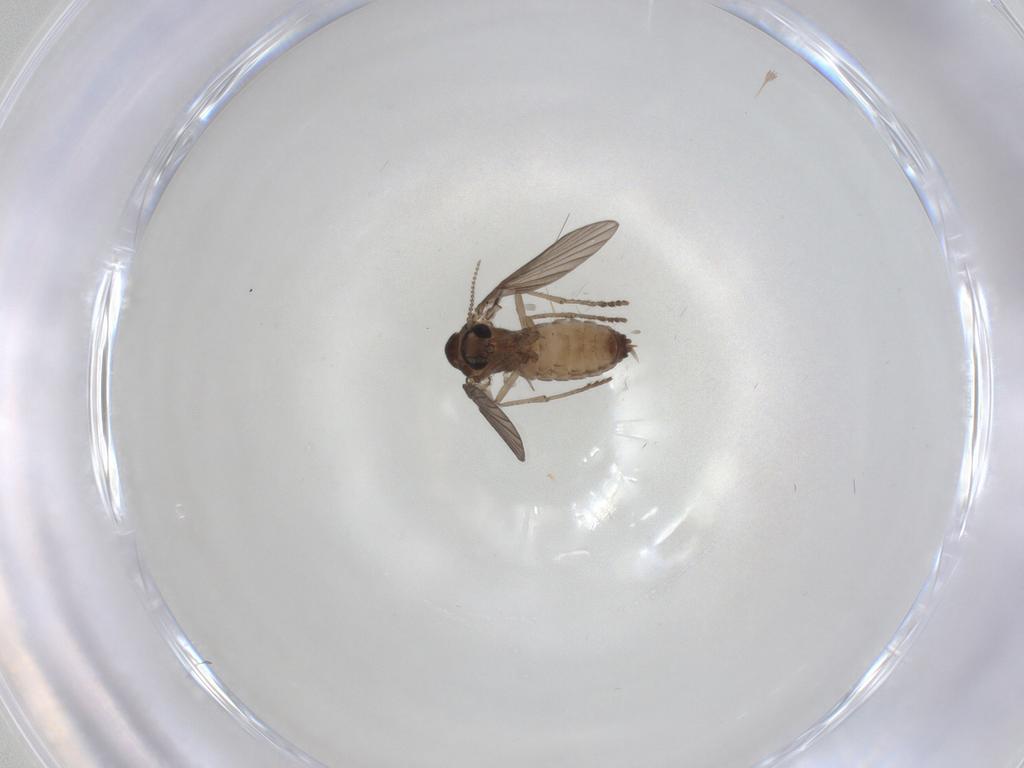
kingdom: Animalia
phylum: Arthropoda
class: Insecta
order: Diptera
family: Psychodidae
